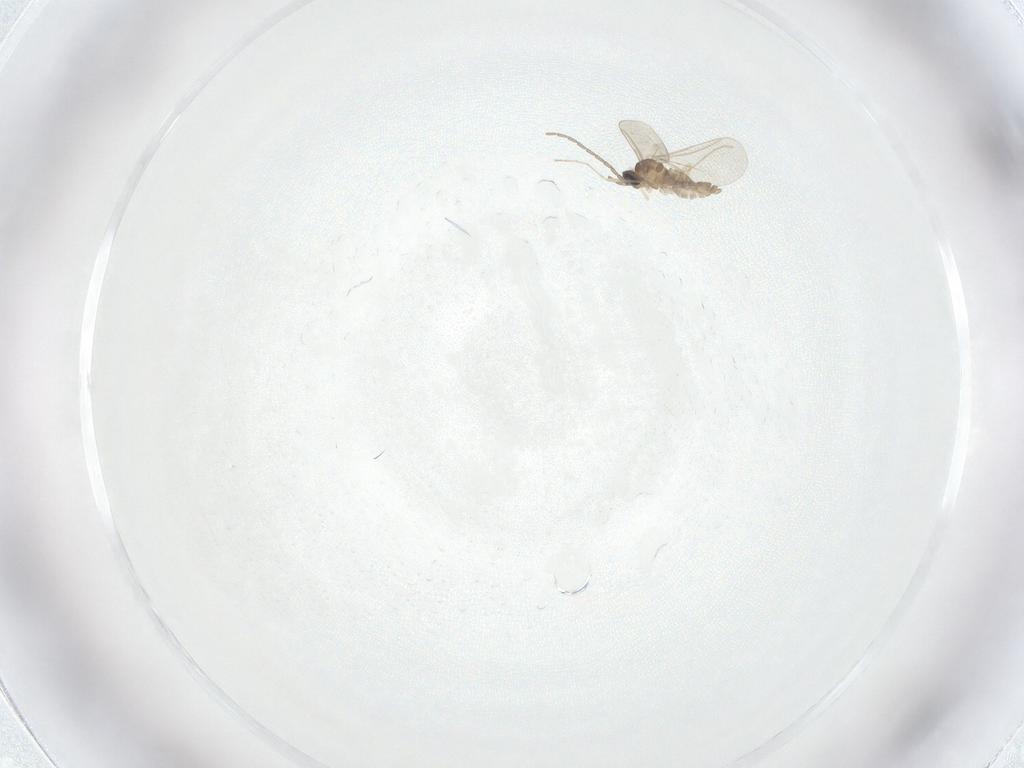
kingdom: Animalia
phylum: Arthropoda
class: Insecta
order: Diptera
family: Cecidomyiidae
